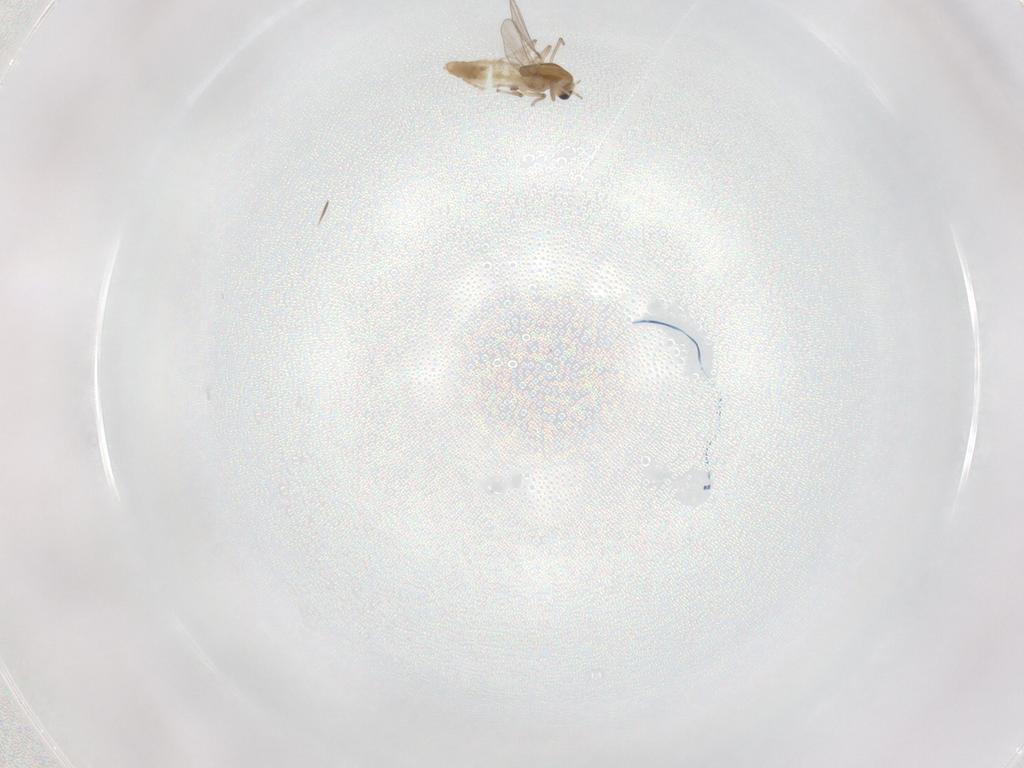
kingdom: Animalia
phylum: Arthropoda
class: Insecta
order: Diptera
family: Chironomidae
